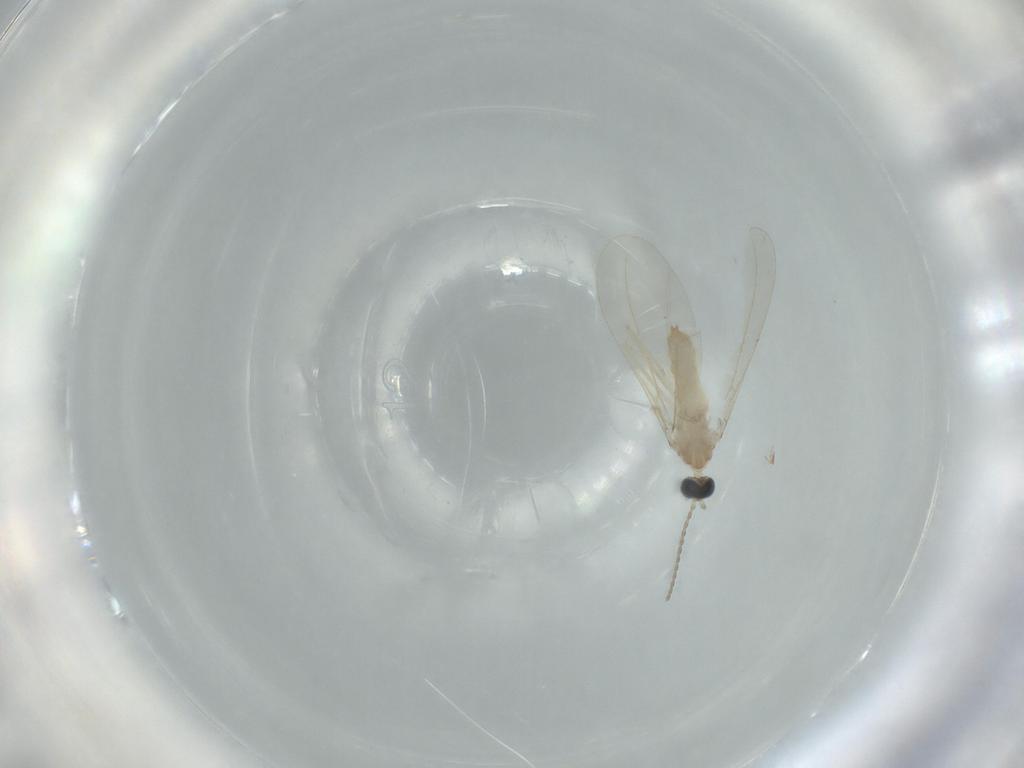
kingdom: Animalia
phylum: Arthropoda
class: Insecta
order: Diptera
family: Cecidomyiidae
